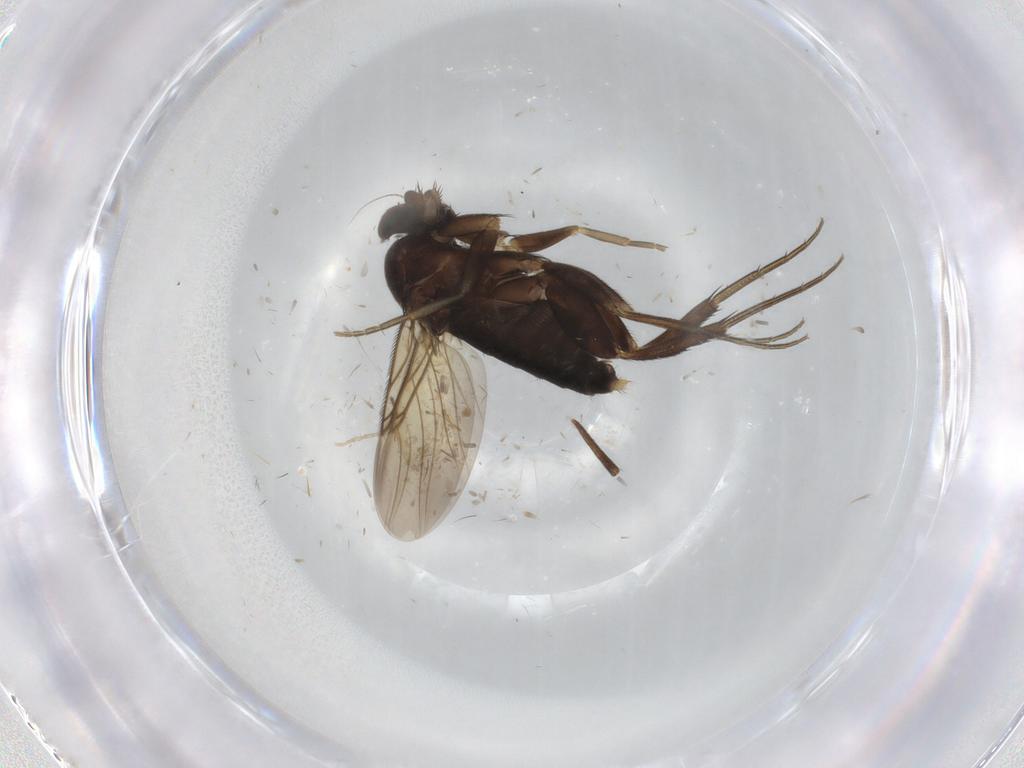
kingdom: Animalia
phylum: Arthropoda
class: Insecta
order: Diptera
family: Cecidomyiidae
